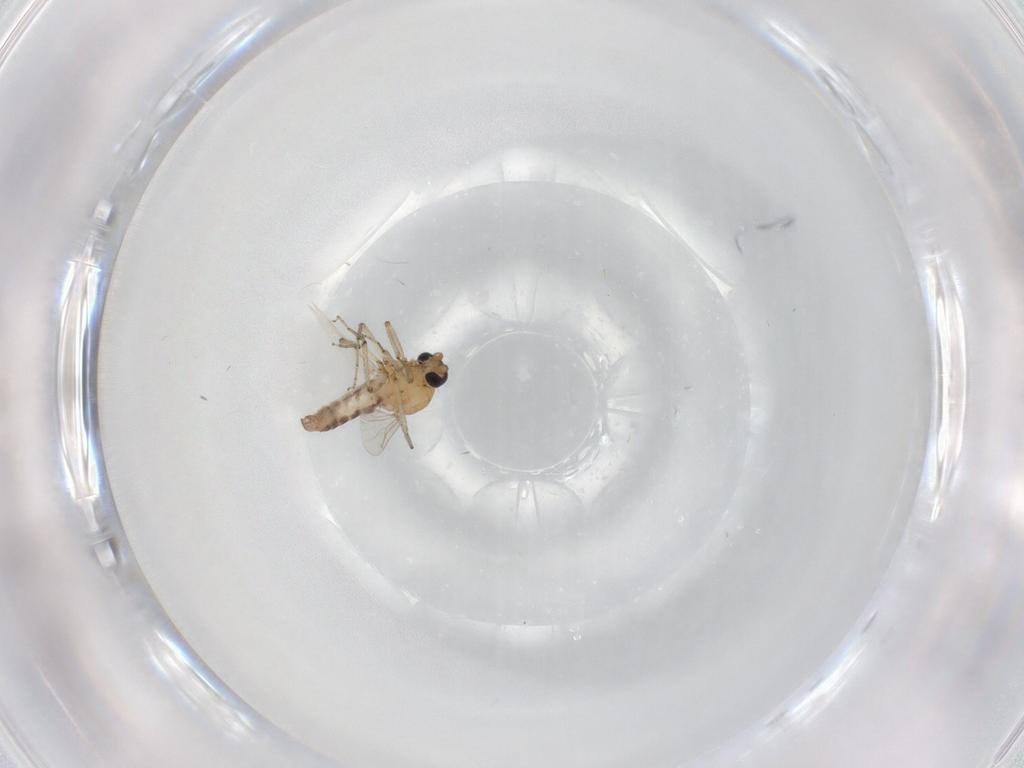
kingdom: Animalia
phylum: Arthropoda
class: Insecta
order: Diptera
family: Ceratopogonidae
